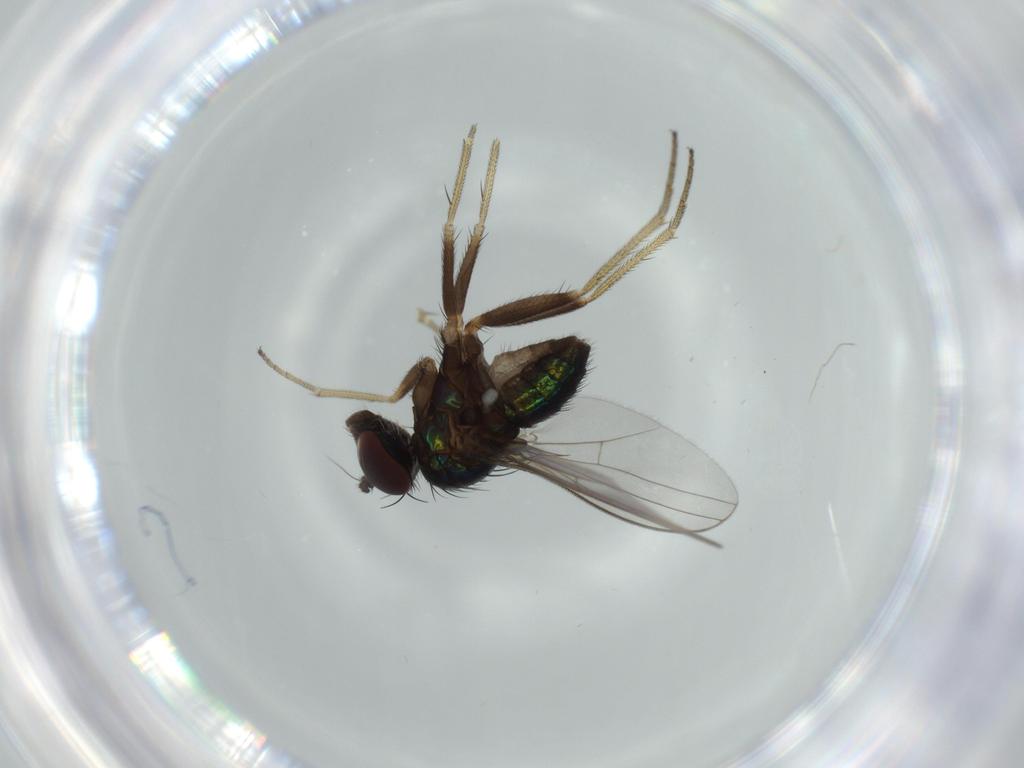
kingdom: Animalia
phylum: Arthropoda
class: Insecta
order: Diptera
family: Dolichopodidae
